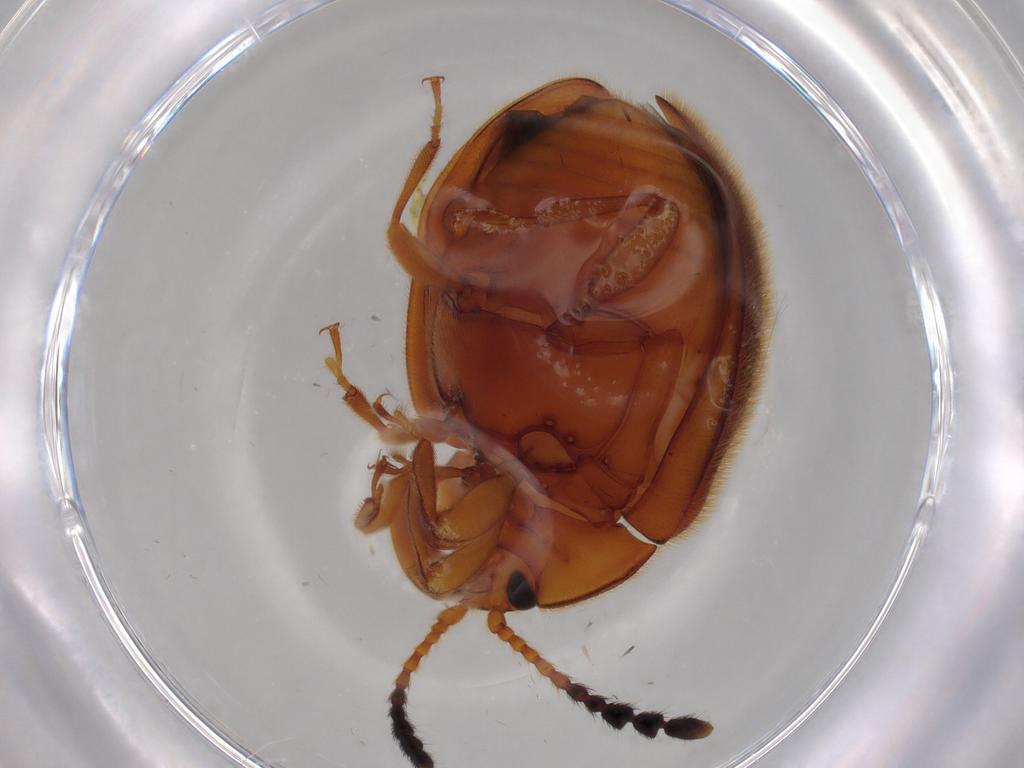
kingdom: Animalia
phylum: Arthropoda
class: Insecta
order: Coleoptera
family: Endomychidae
